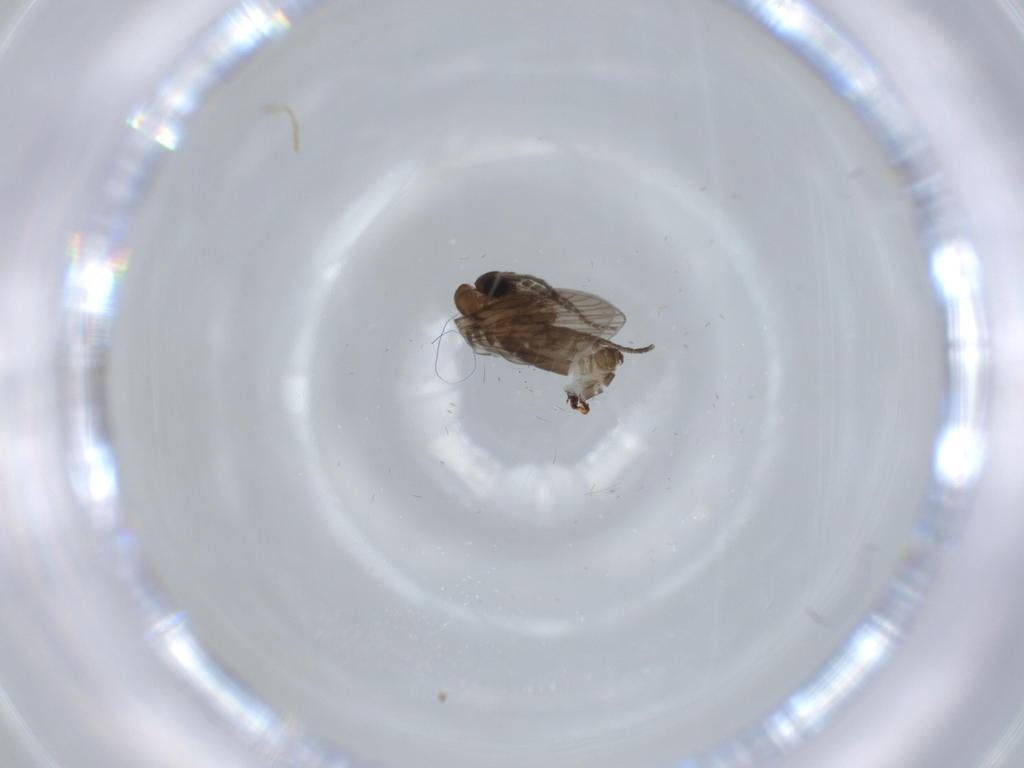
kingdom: Animalia
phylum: Arthropoda
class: Insecta
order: Diptera
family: Psychodidae
